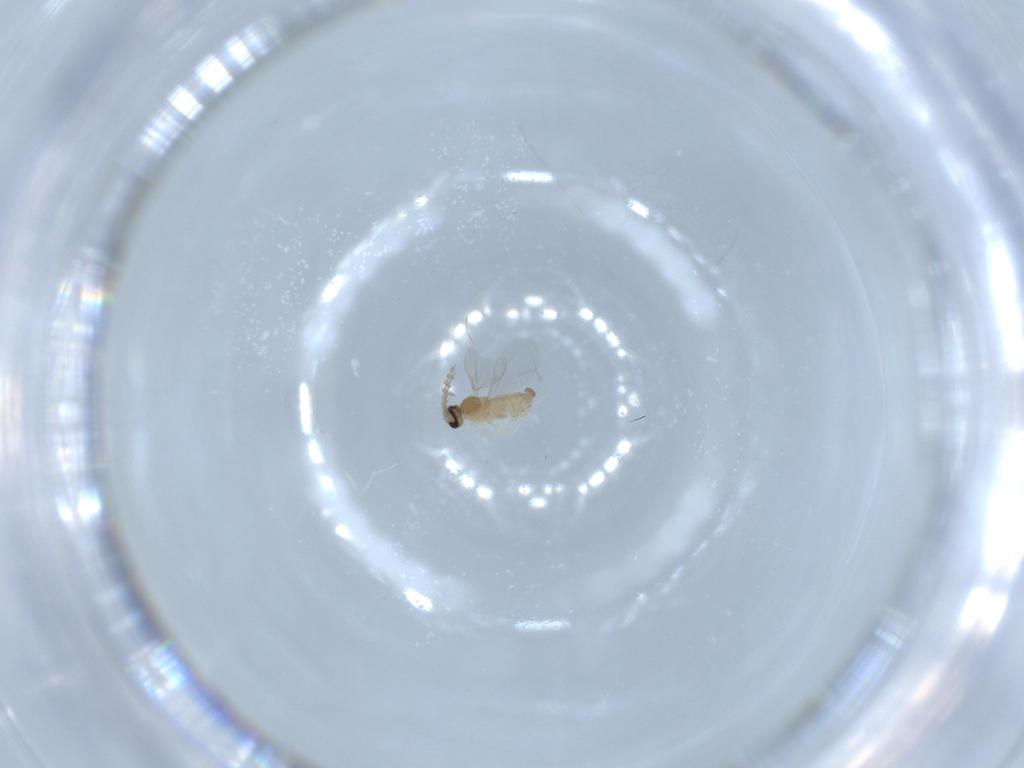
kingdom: Animalia
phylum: Arthropoda
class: Insecta
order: Diptera
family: Cecidomyiidae
